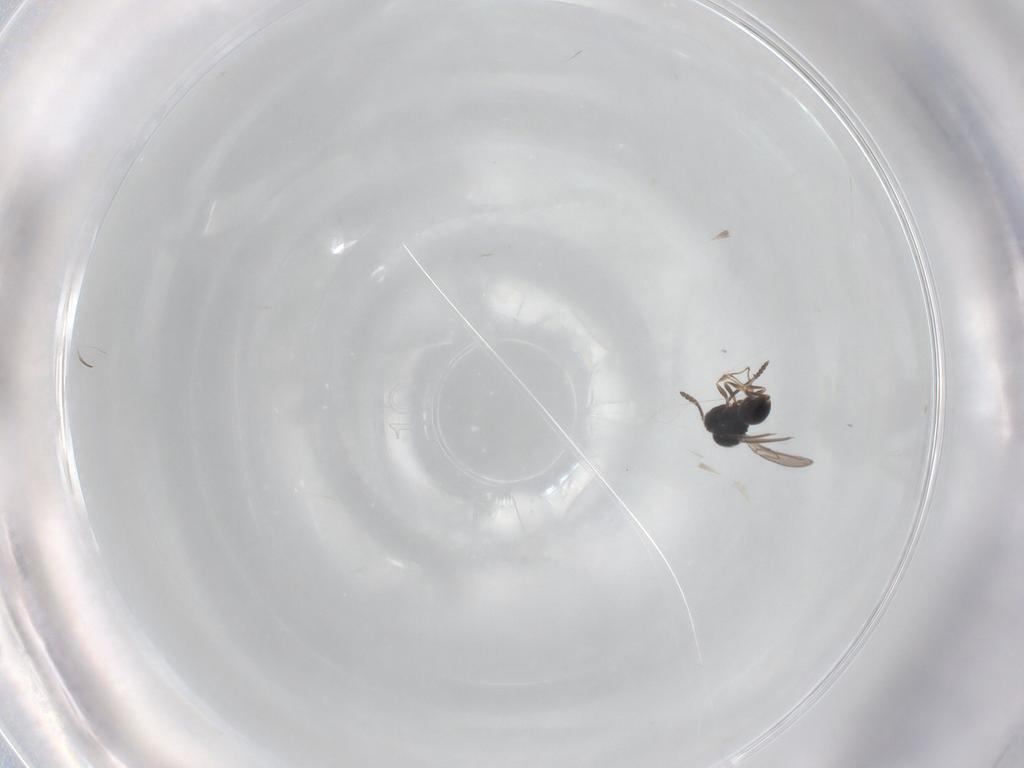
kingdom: Animalia
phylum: Arthropoda
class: Insecta
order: Hymenoptera
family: Scelionidae
